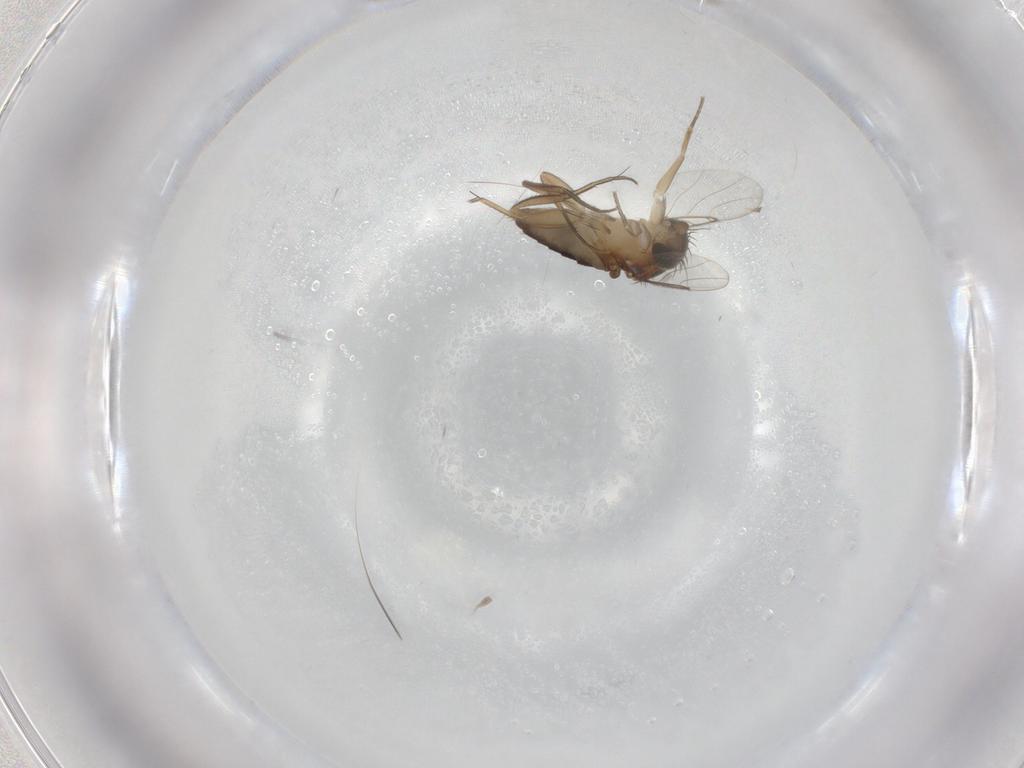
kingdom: Animalia
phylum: Arthropoda
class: Insecta
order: Diptera
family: Phoridae
